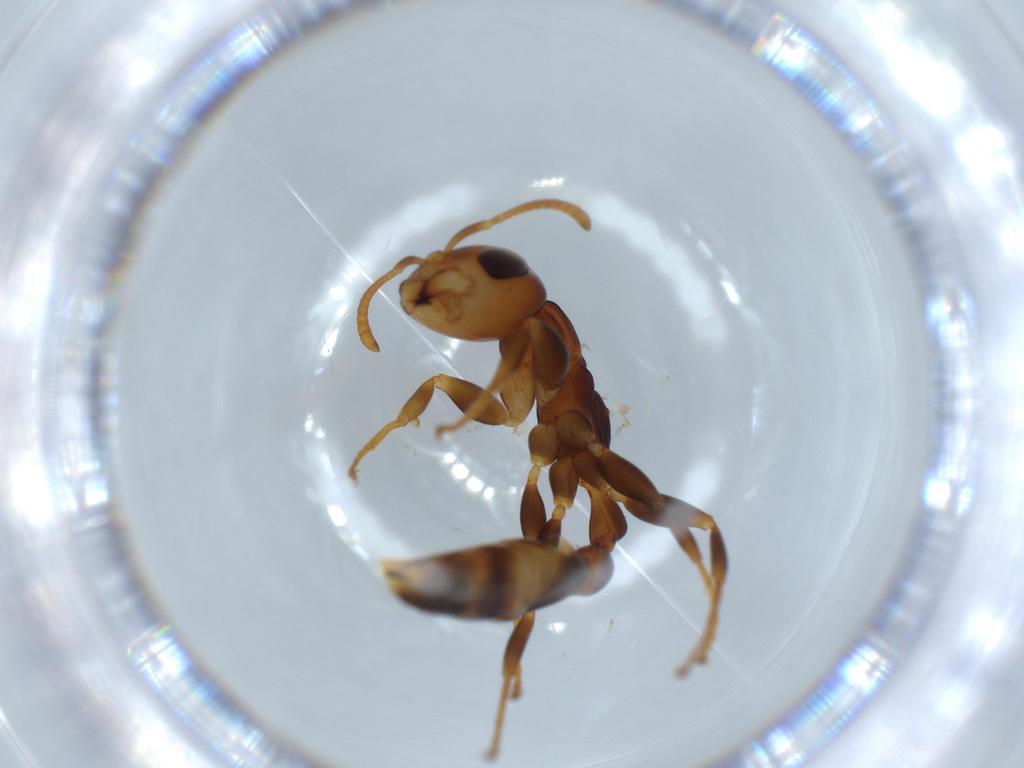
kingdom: Animalia
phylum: Arthropoda
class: Insecta
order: Hymenoptera
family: Formicidae
